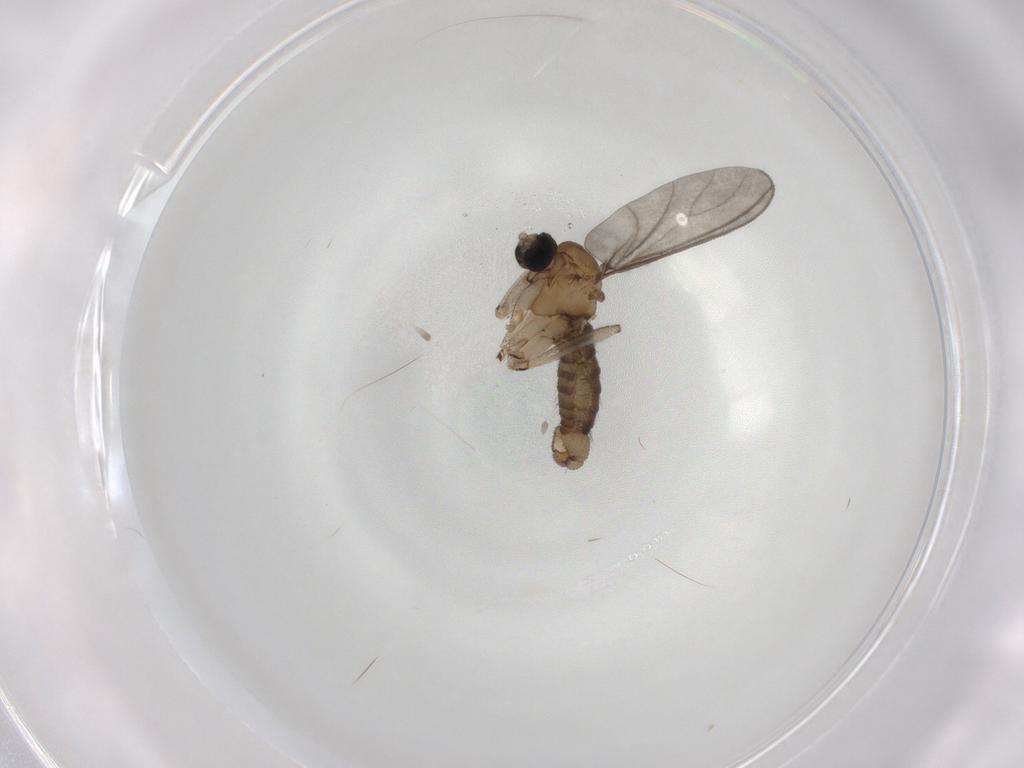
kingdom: Animalia
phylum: Arthropoda
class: Insecta
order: Diptera
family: Sciaridae
